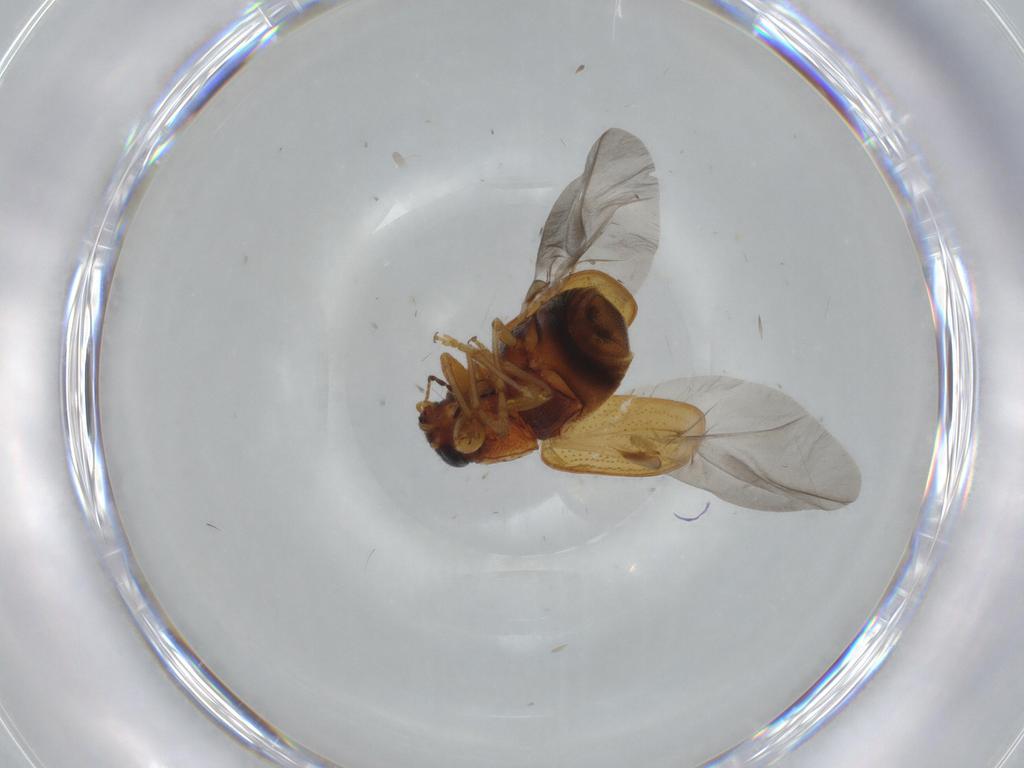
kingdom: Animalia
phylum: Arthropoda
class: Insecta
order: Coleoptera
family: Chrysomelidae
